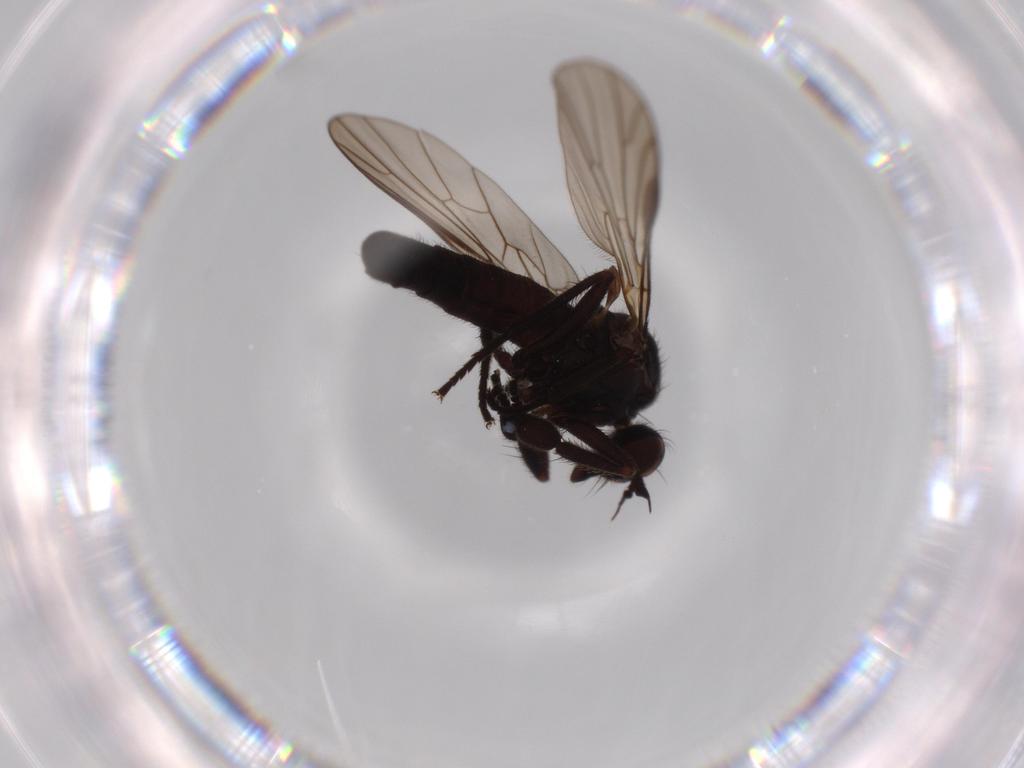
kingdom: Animalia
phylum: Arthropoda
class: Insecta
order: Diptera
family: Empididae
